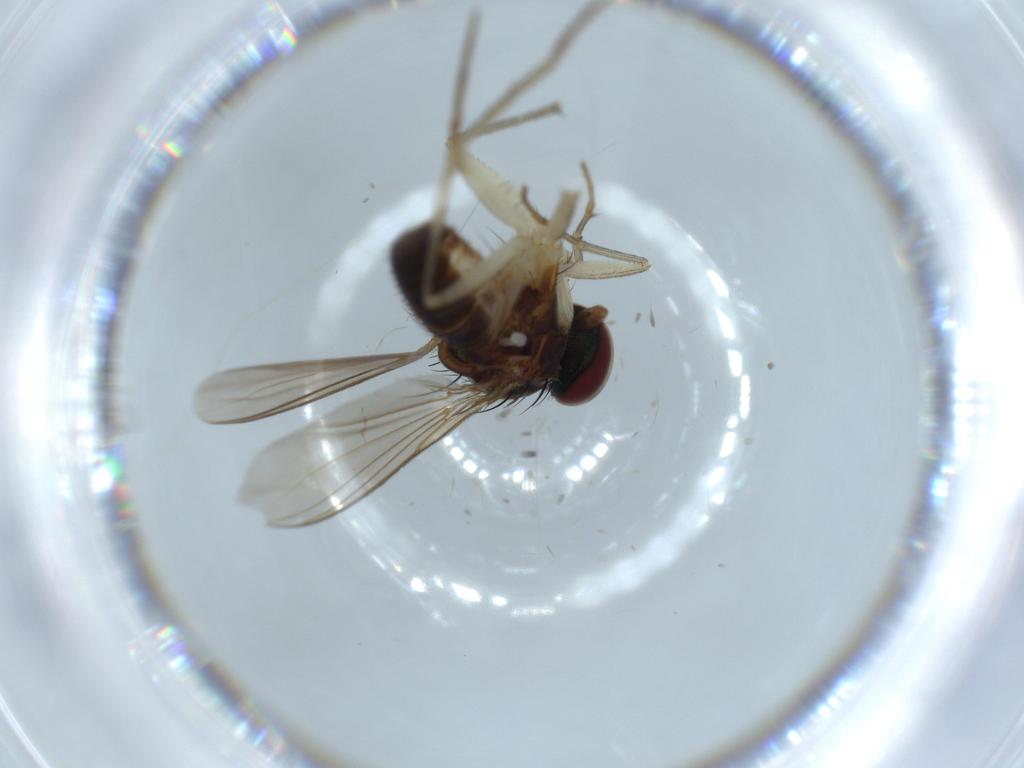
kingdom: Animalia
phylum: Arthropoda
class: Insecta
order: Diptera
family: Dolichopodidae
